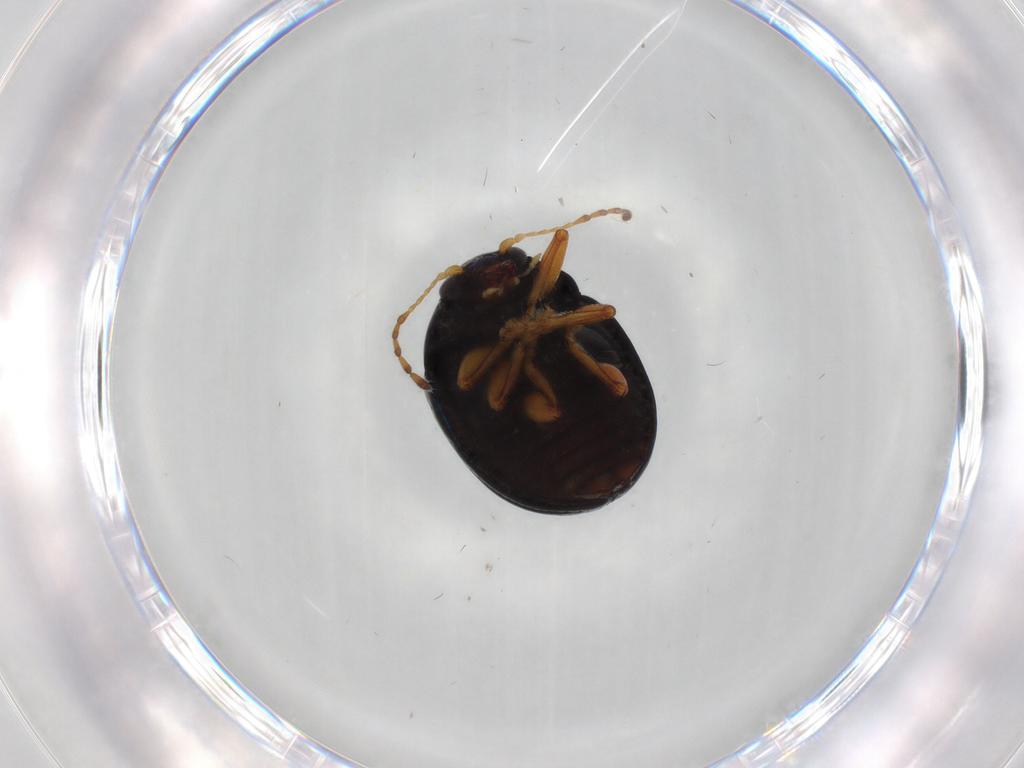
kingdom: Animalia
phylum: Arthropoda
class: Insecta
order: Coleoptera
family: Chrysomelidae
